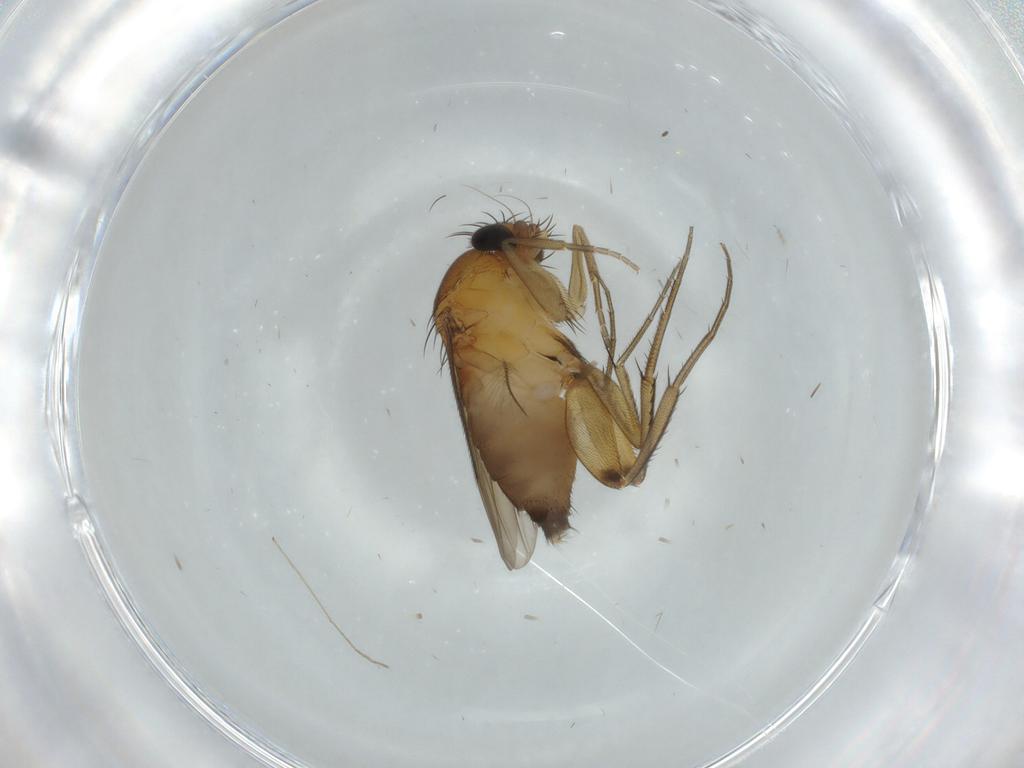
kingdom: Animalia
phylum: Arthropoda
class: Insecta
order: Diptera
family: Phoridae
